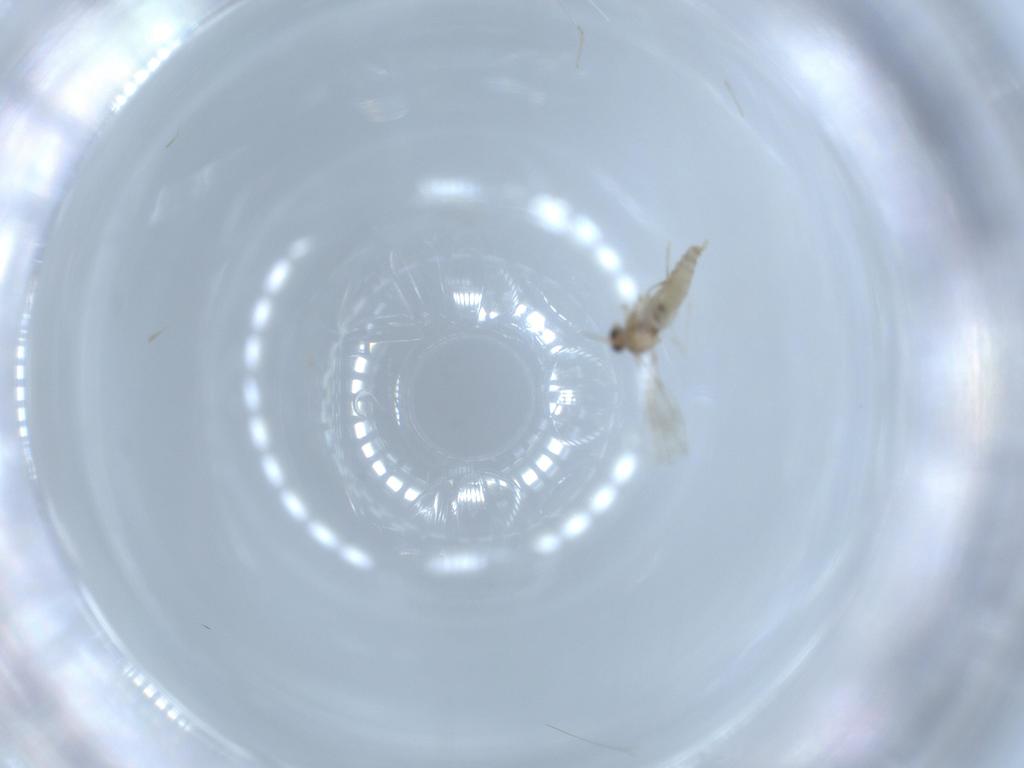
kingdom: Animalia
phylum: Arthropoda
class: Insecta
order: Diptera
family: Cecidomyiidae
